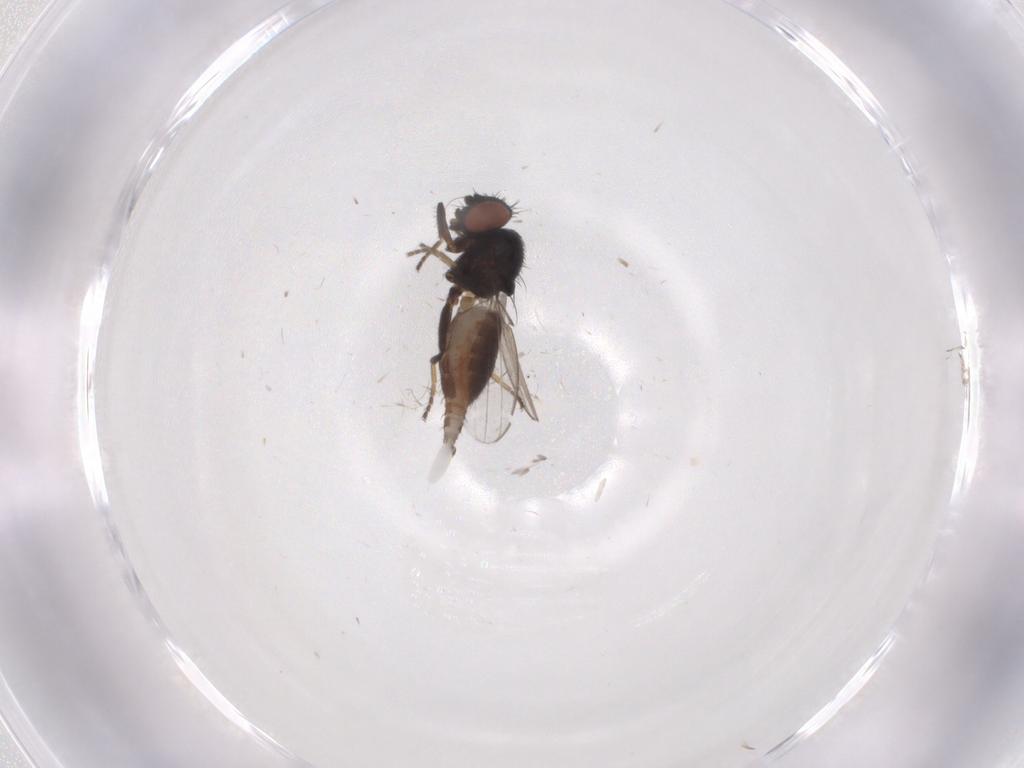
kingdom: Animalia
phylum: Arthropoda
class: Insecta
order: Diptera
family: Milichiidae
